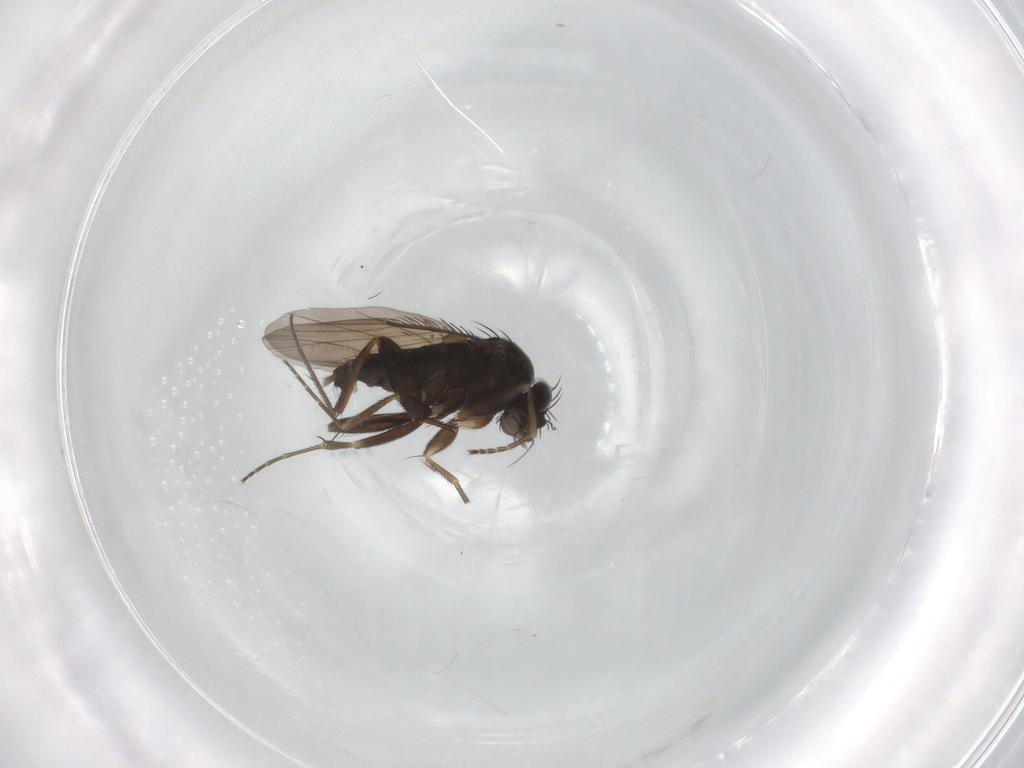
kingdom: Animalia
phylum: Arthropoda
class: Insecta
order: Diptera
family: Phoridae
